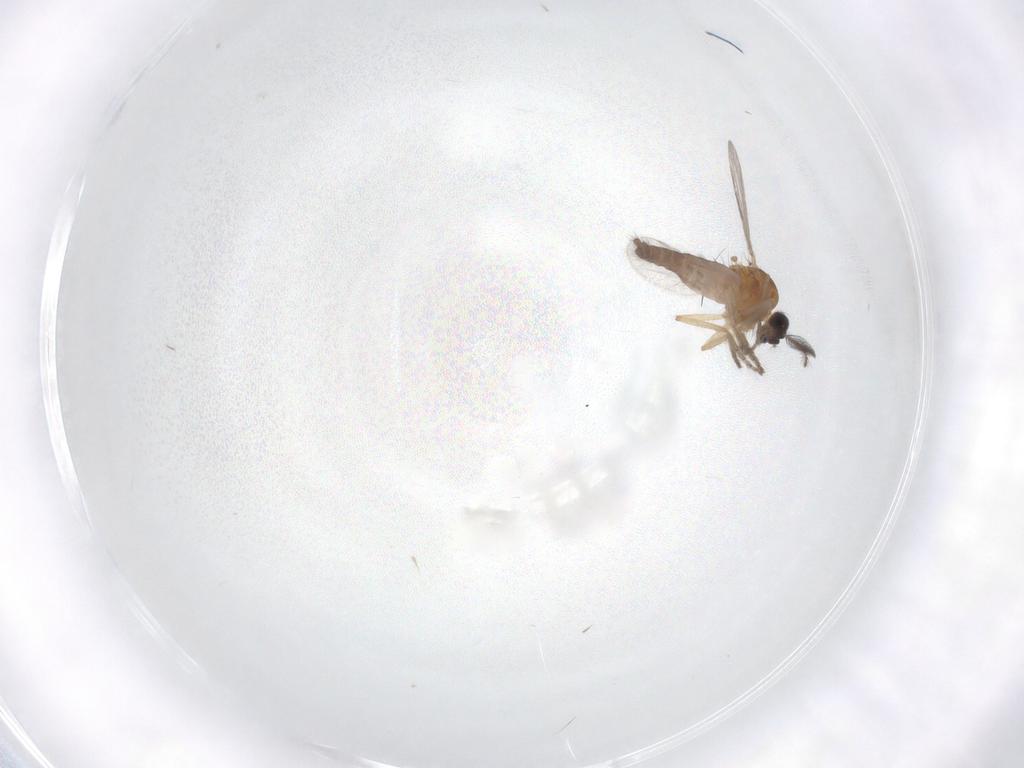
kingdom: Animalia
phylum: Arthropoda
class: Insecta
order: Diptera
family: Ceratopogonidae
